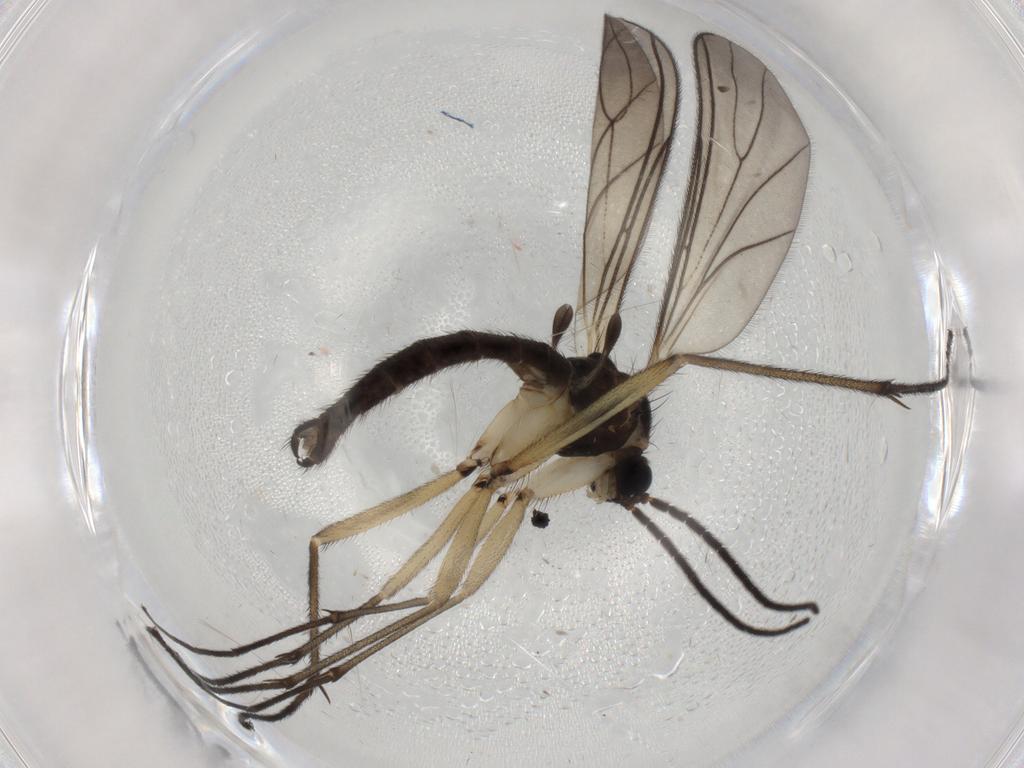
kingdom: Animalia
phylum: Arthropoda
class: Insecta
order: Diptera
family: Sciaridae
